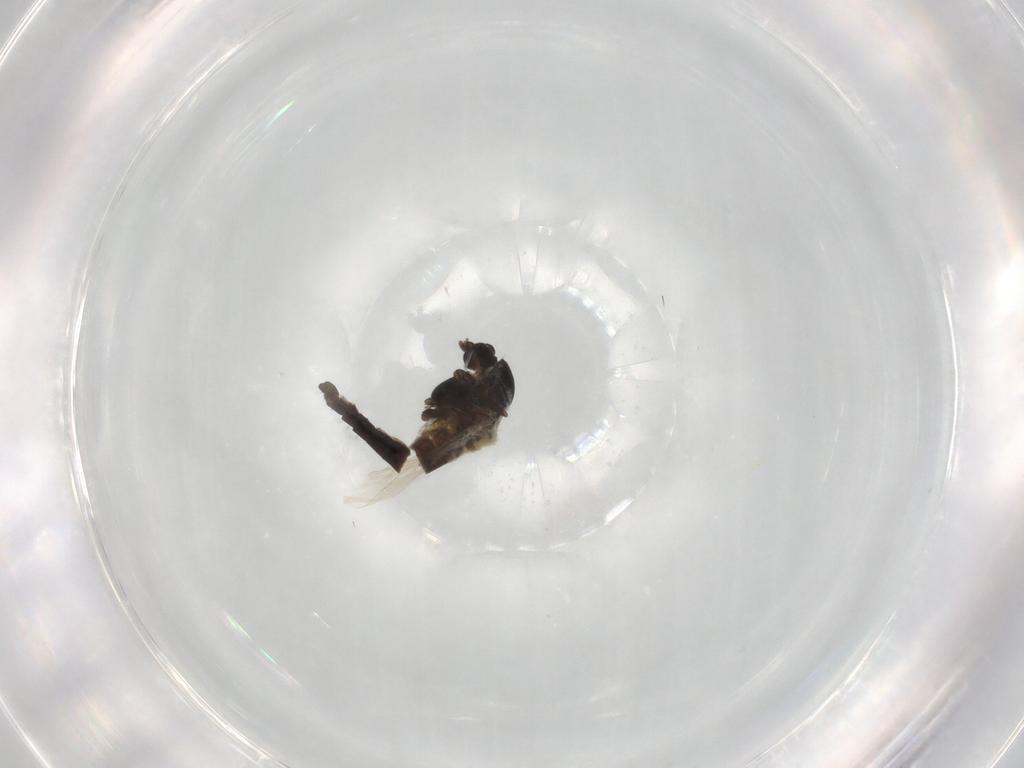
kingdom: Animalia
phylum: Arthropoda
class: Insecta
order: Diptera
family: Chironomidae
